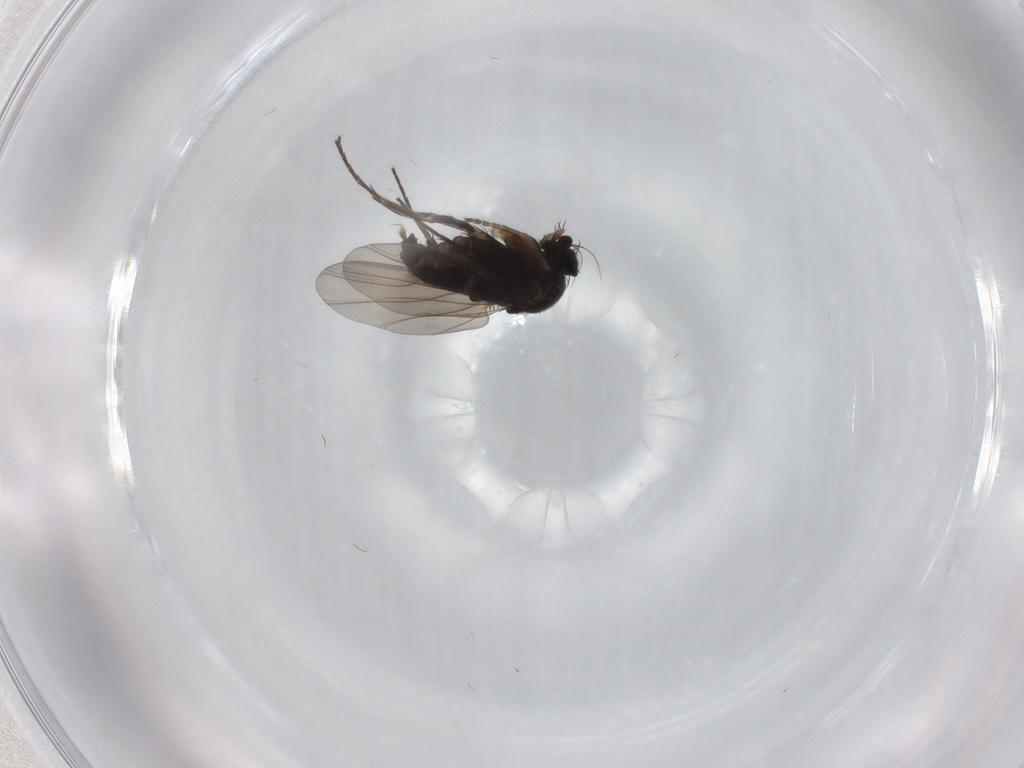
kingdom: Animalia
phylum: Arthropoda
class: Insecta
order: Diptera
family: Phoridae
